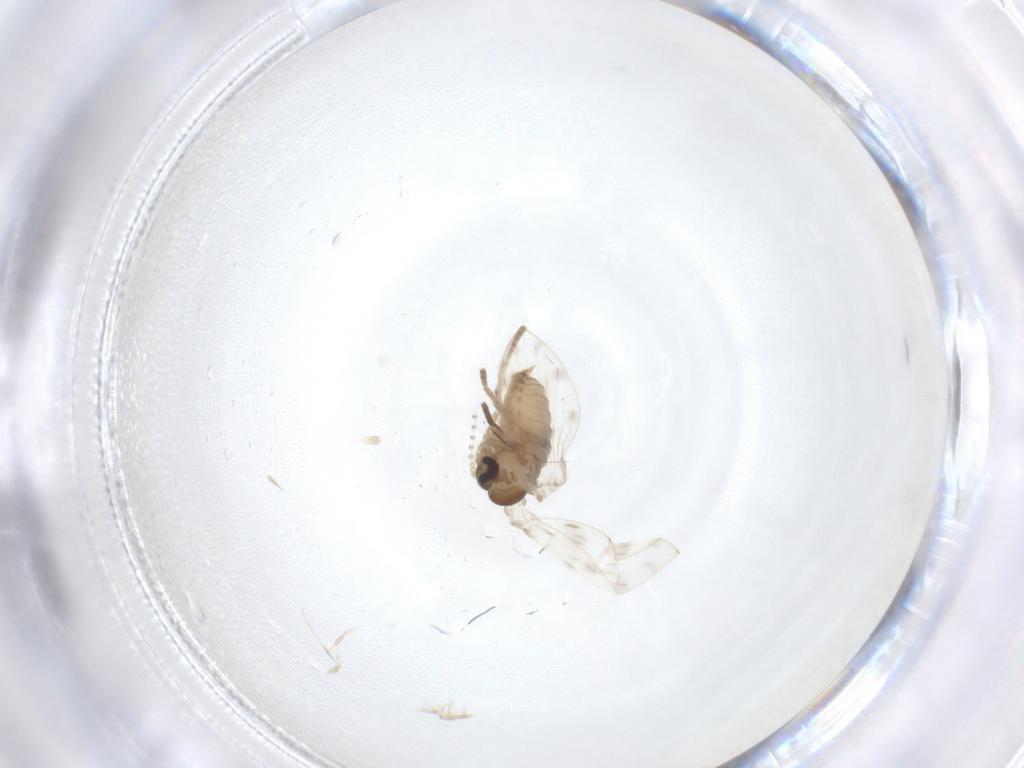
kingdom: Animalia
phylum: Arthropoda
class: Insecta
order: Diptera
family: Psychodidae
